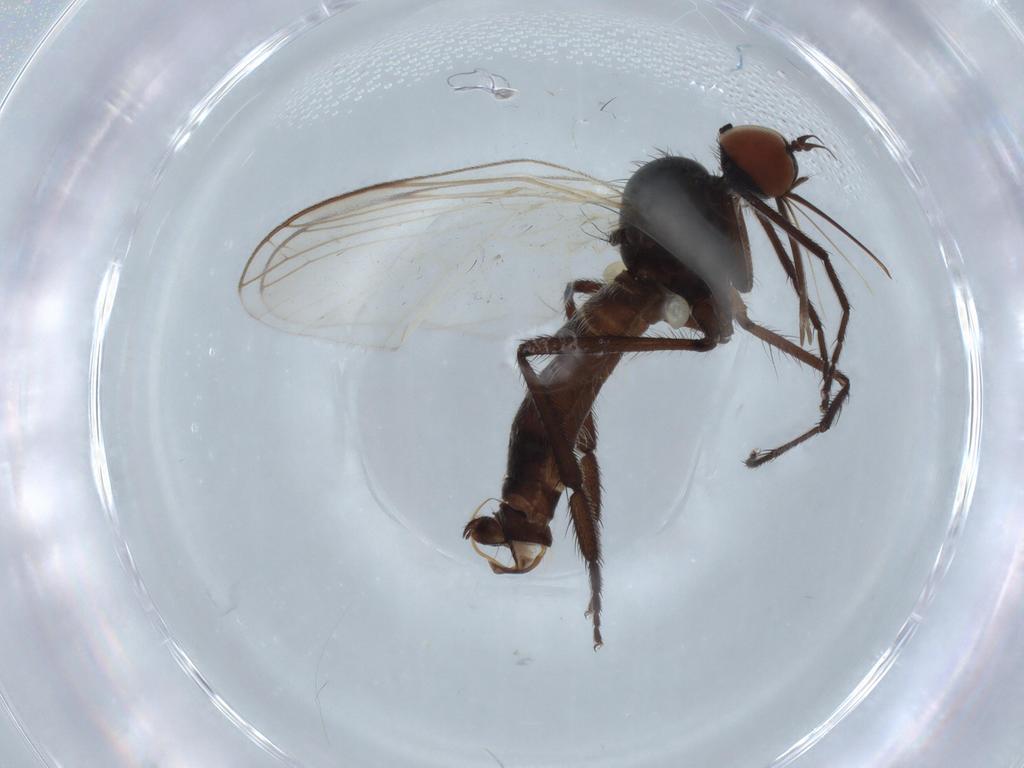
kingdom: Animalia
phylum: Arthropoda
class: Insecta
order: Diptera
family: Empididae
